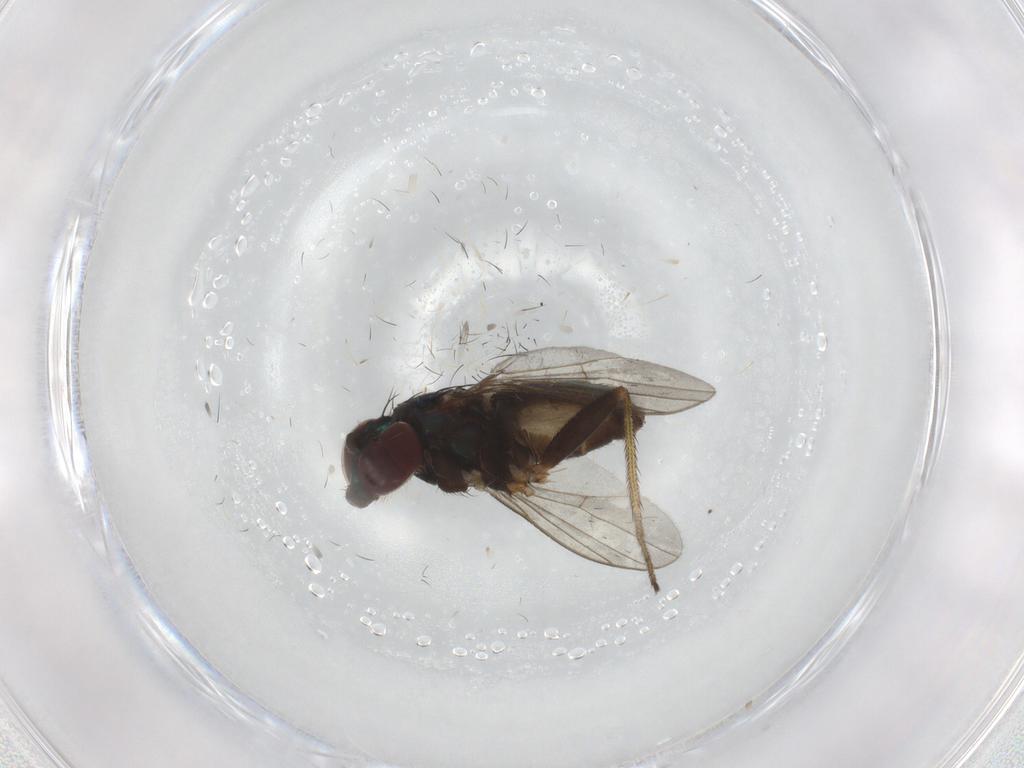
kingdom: Animalia
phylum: Arthropoda
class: Insecta
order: Diptera
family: Dolichopodidae
